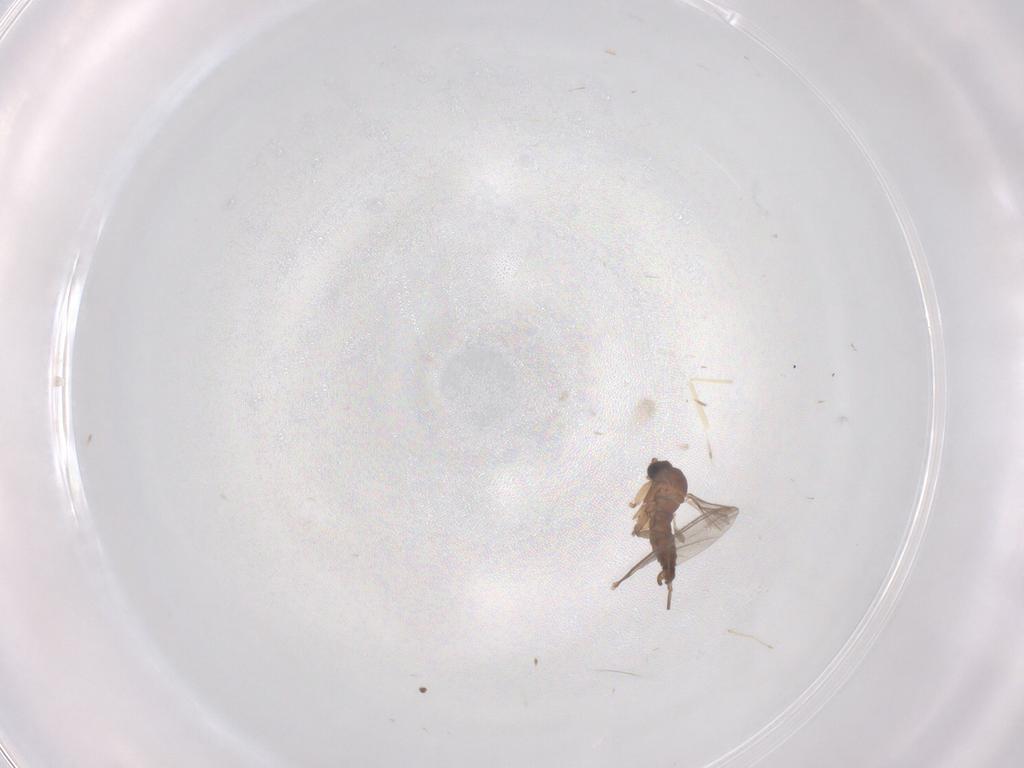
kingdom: Animalia
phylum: Arthropoda
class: Insecta
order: Diptera
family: Cecidomyiidae
